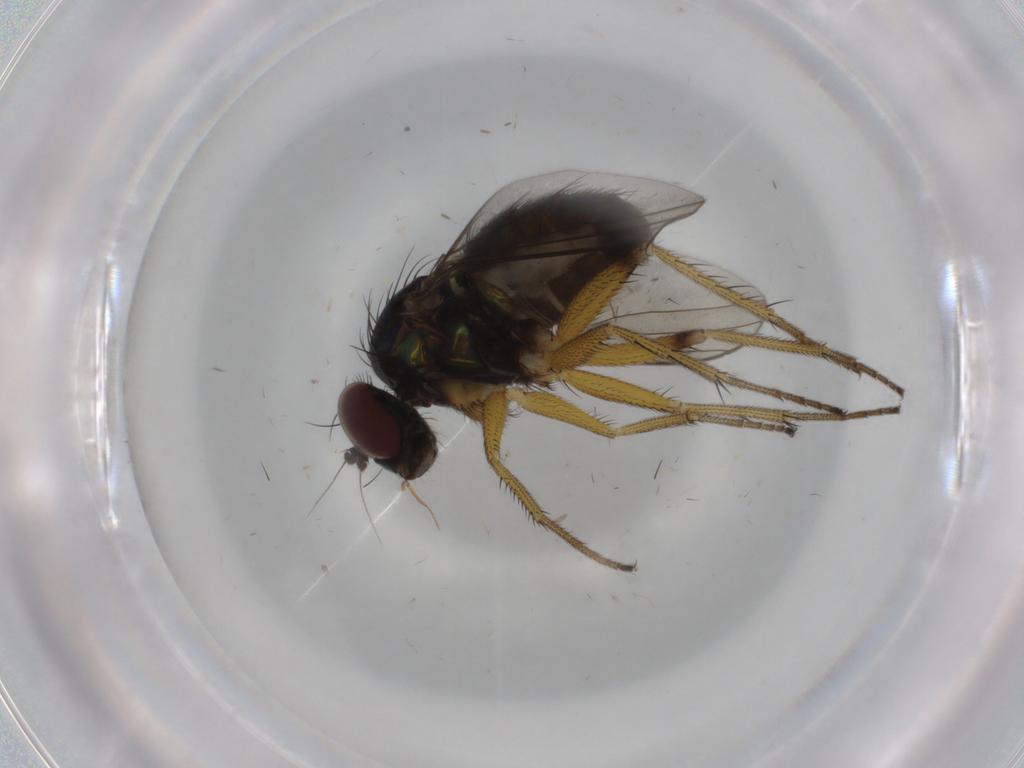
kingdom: Animalia
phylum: Arthropoda
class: Insecta
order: Diptera
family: Dolichopodidae
